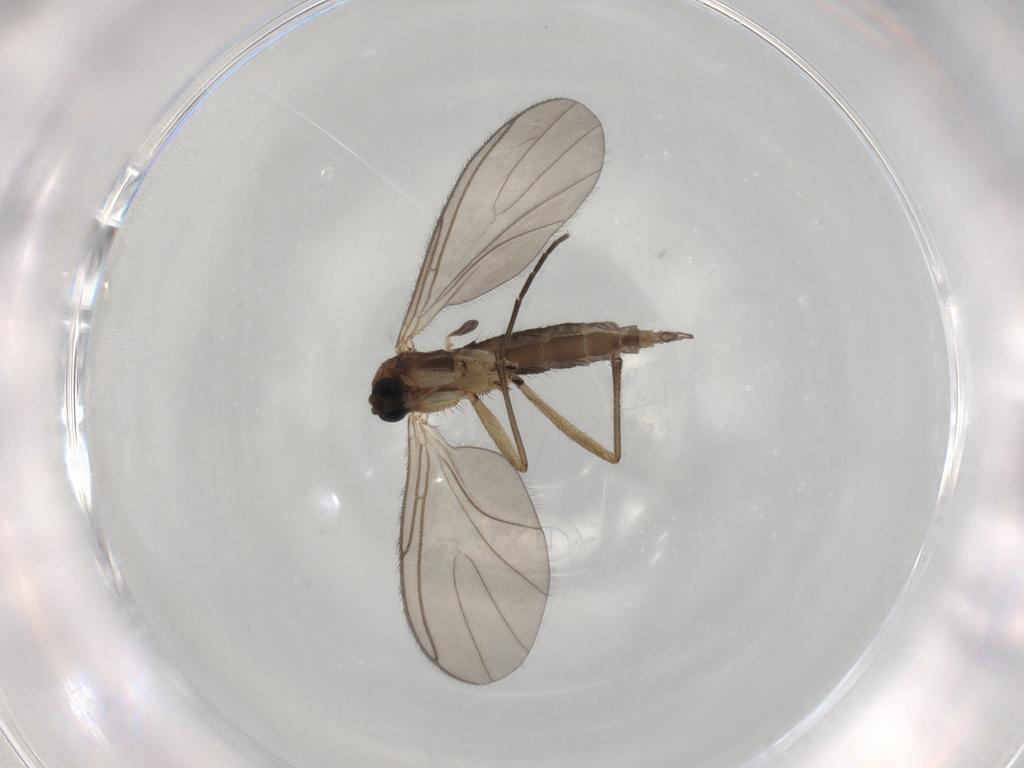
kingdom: Animalia
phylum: Arthropoda
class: Insecta
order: Diptera
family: Sciaridae
